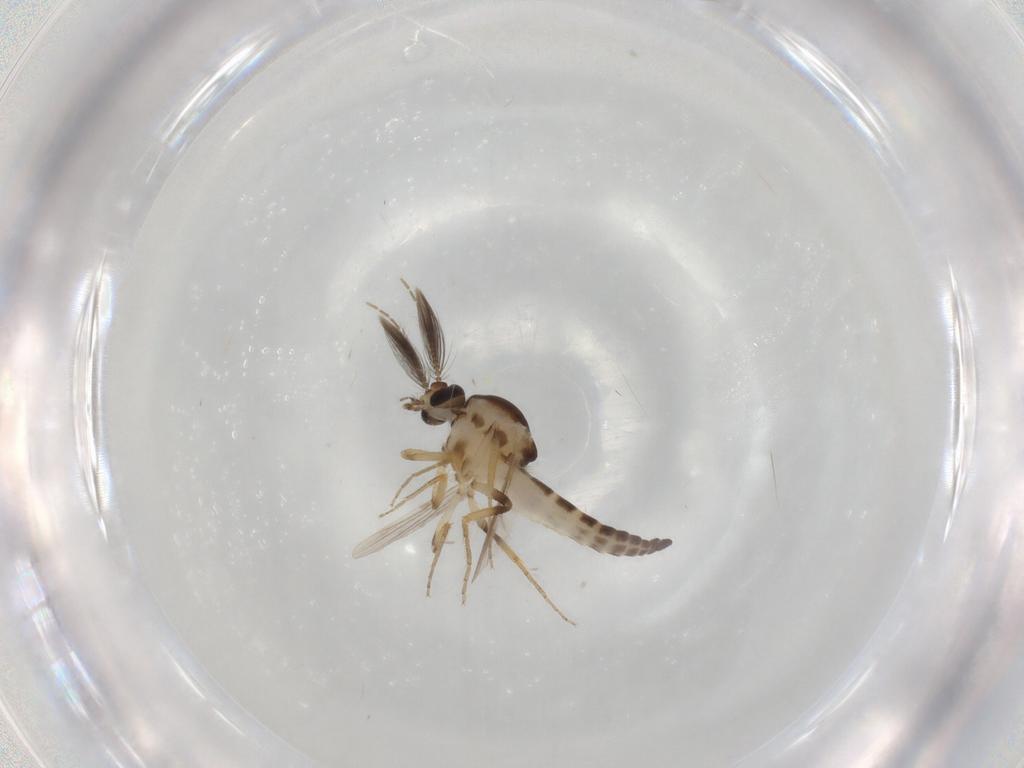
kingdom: Animalia
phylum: Arthropoda
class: Insecta
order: Diptera
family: Ceratopogonidae
